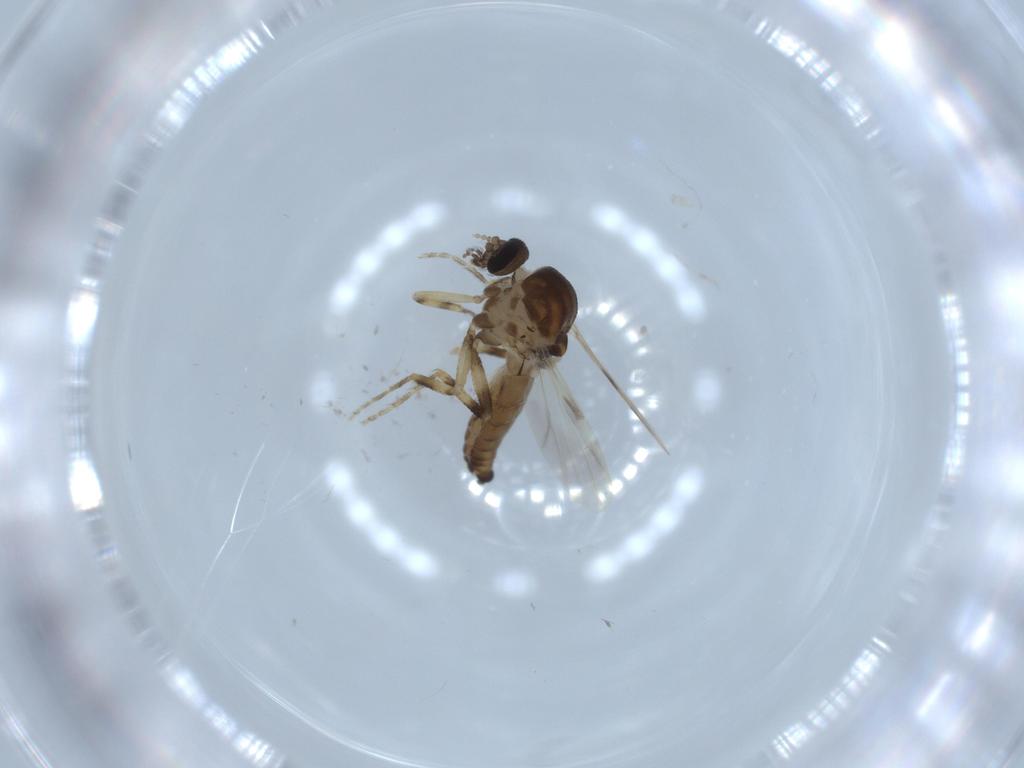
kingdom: Animalia
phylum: Arthropoda
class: Insecta
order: Diptera
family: Ceratopogonidae
